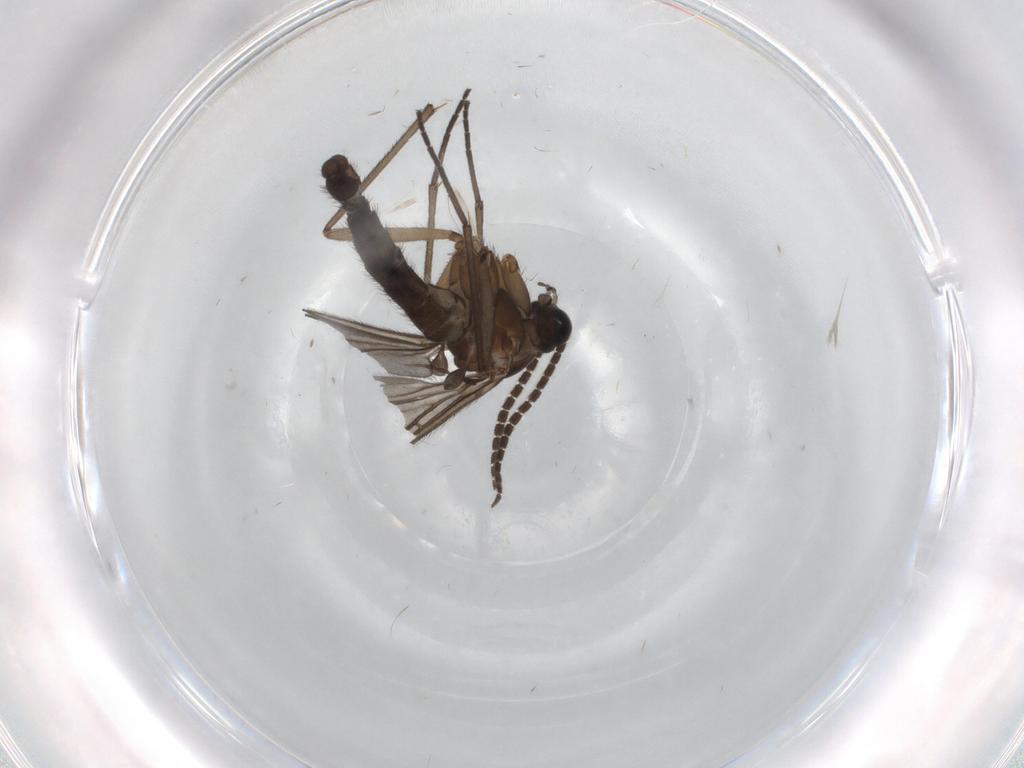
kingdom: Animalia
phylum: Arthropoda
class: Insecta
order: Diptera
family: Sciaridae
